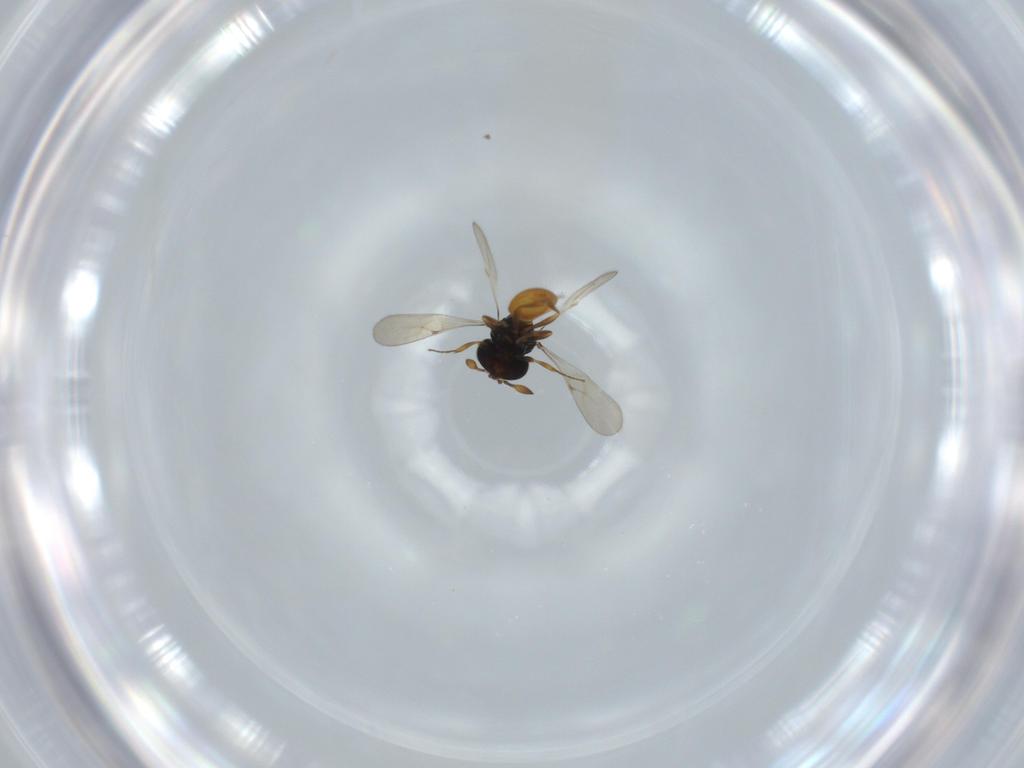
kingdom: Animalia
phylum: Arthropoda
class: Insecta
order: Hymenoptera
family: Scelionidae
